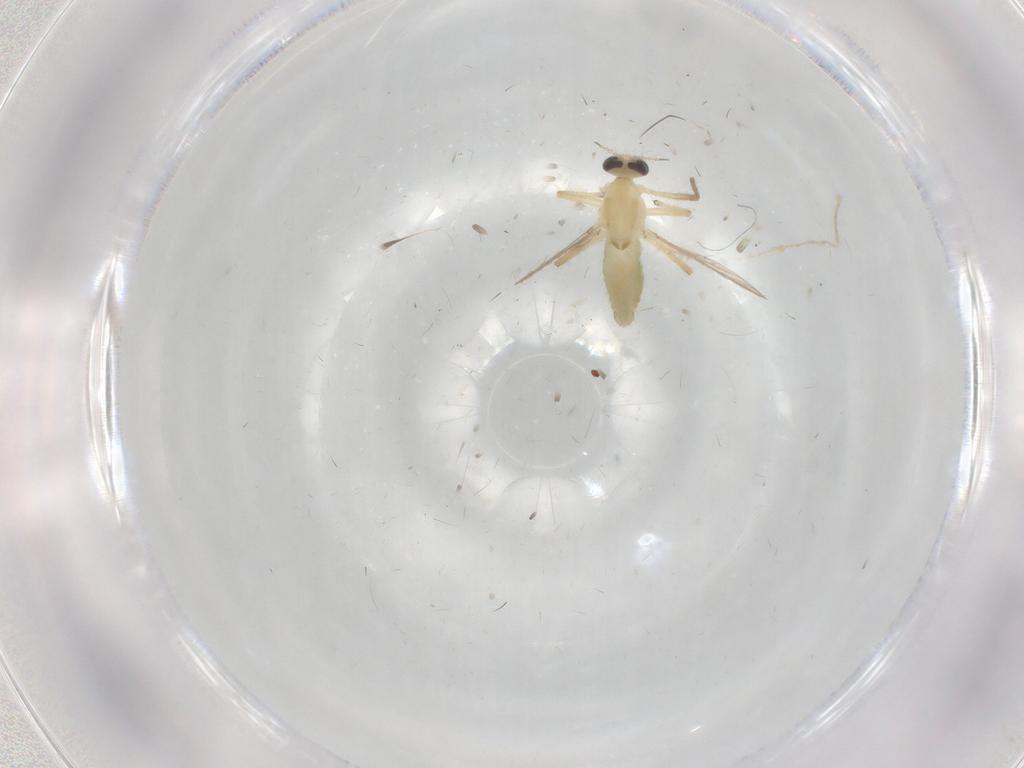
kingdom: Animalia
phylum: Arthropoda
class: Insecta
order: Diptera
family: Chironomidae
